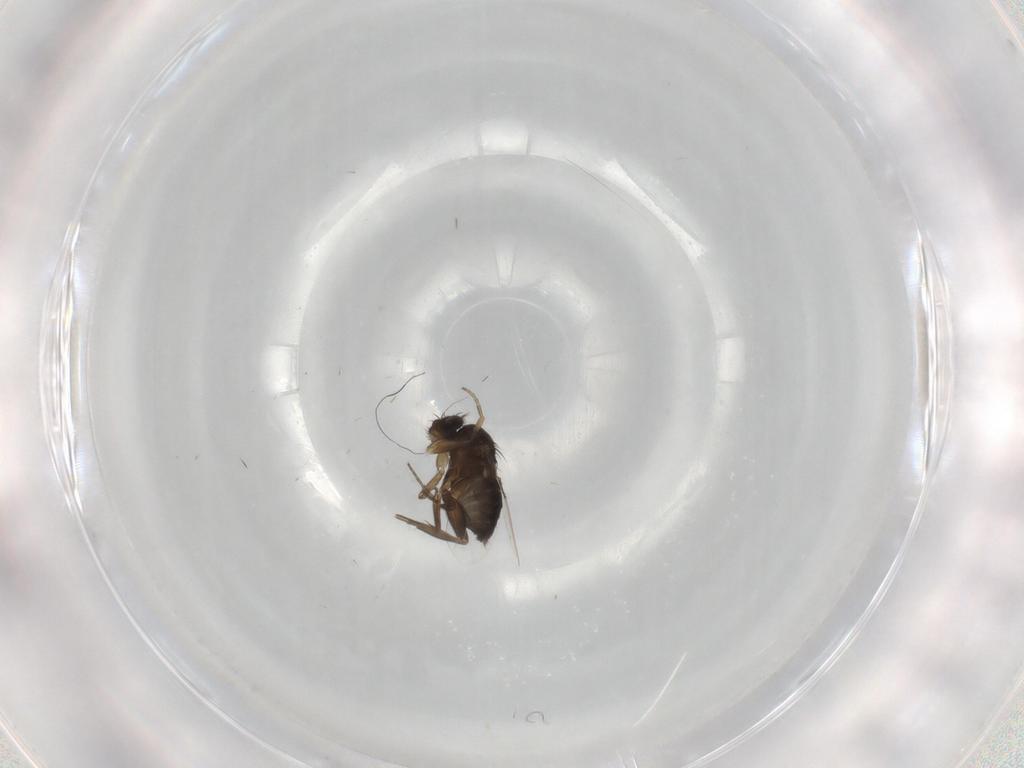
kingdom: Animalia
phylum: Arthropoda
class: Insecta
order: Diptera
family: Phoridae
